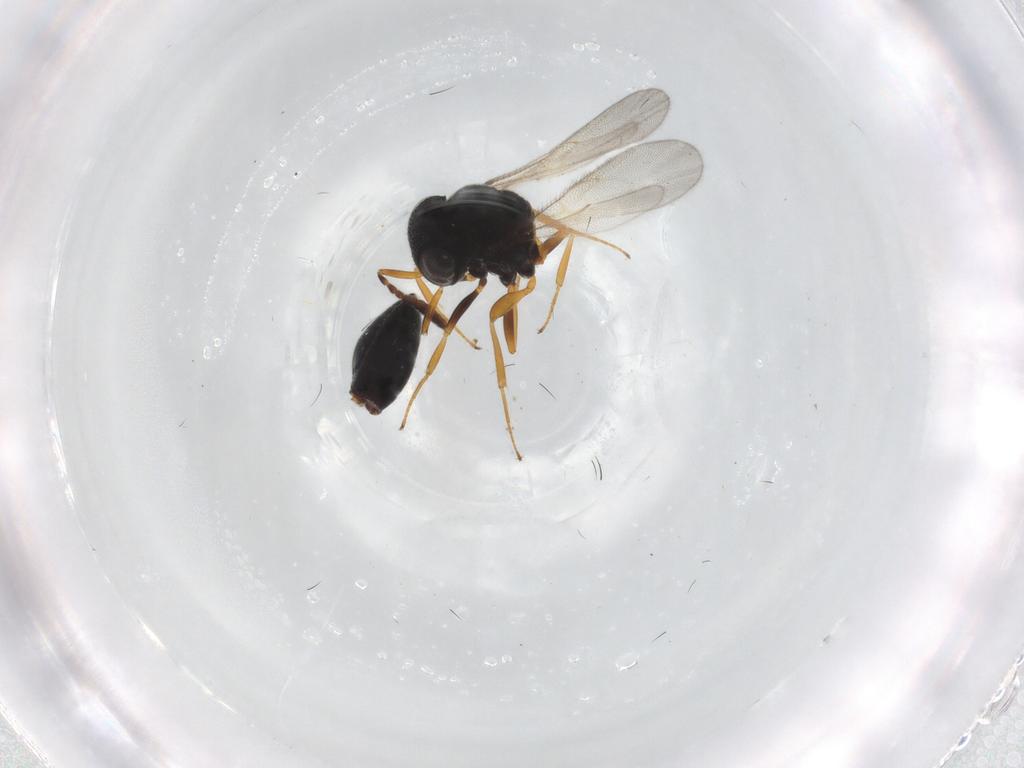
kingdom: Animalia
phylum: Arthropoda
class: Insecta
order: Hymenoptera
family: Scelionidae
